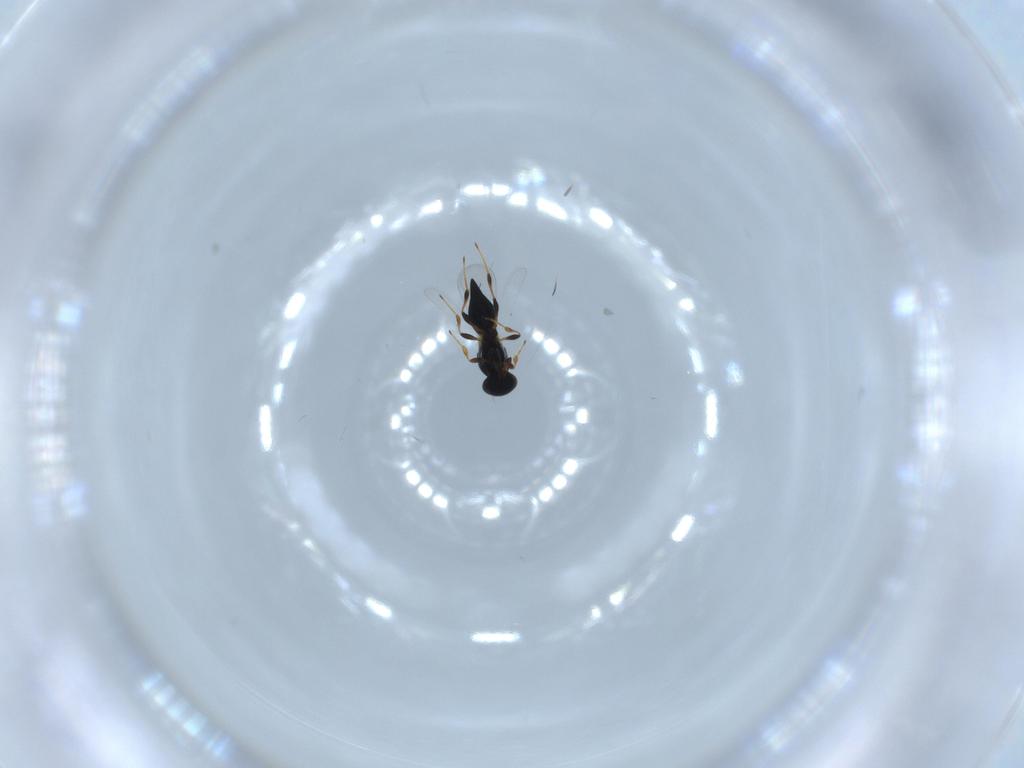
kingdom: Animalia
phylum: Arthropoda
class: Insecta
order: Hymenoptera
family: Platygastridae
